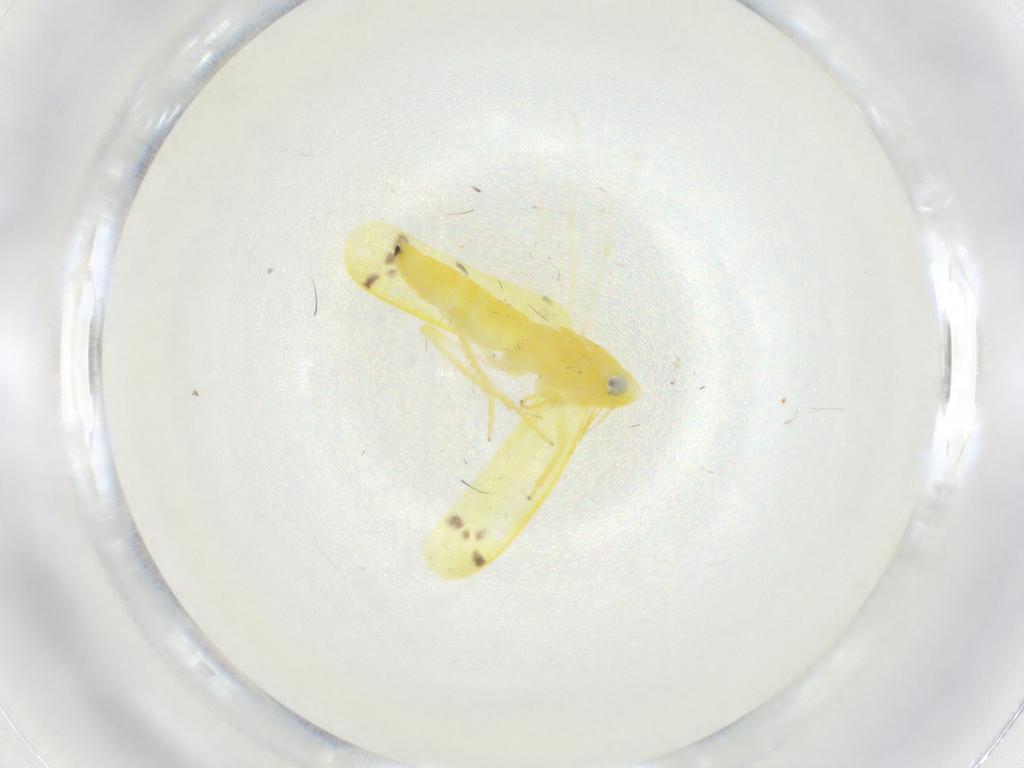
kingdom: Animalia
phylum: Arthropoda
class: Insecta
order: Hemiptera
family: Cicadellidae
